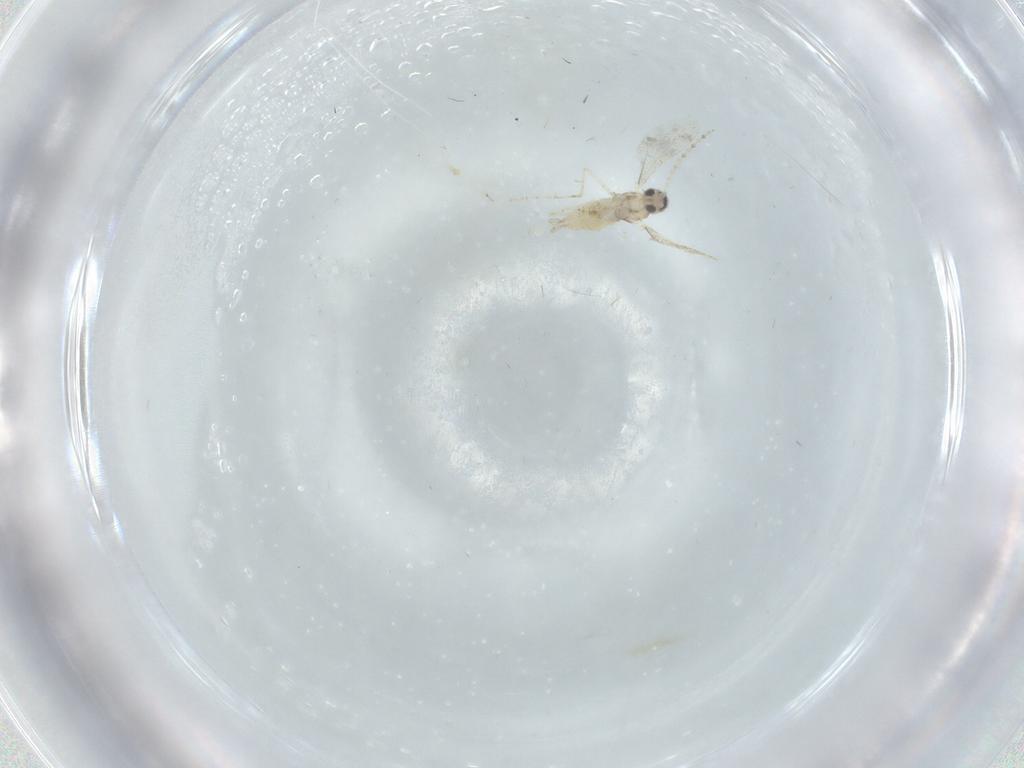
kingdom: Animalia
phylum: Arthropoda
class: Insecta
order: Diptera
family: Cecidomyiidae
